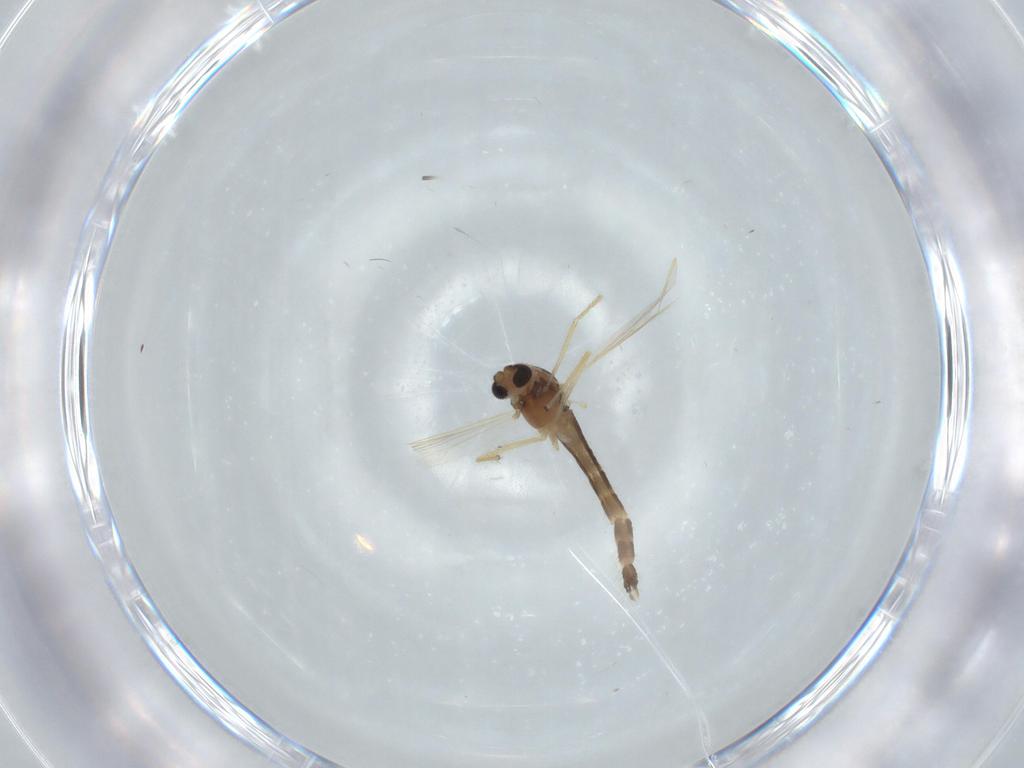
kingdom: Animalia
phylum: Arthropoda
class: Insecta
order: Diptera
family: Chironomidae
